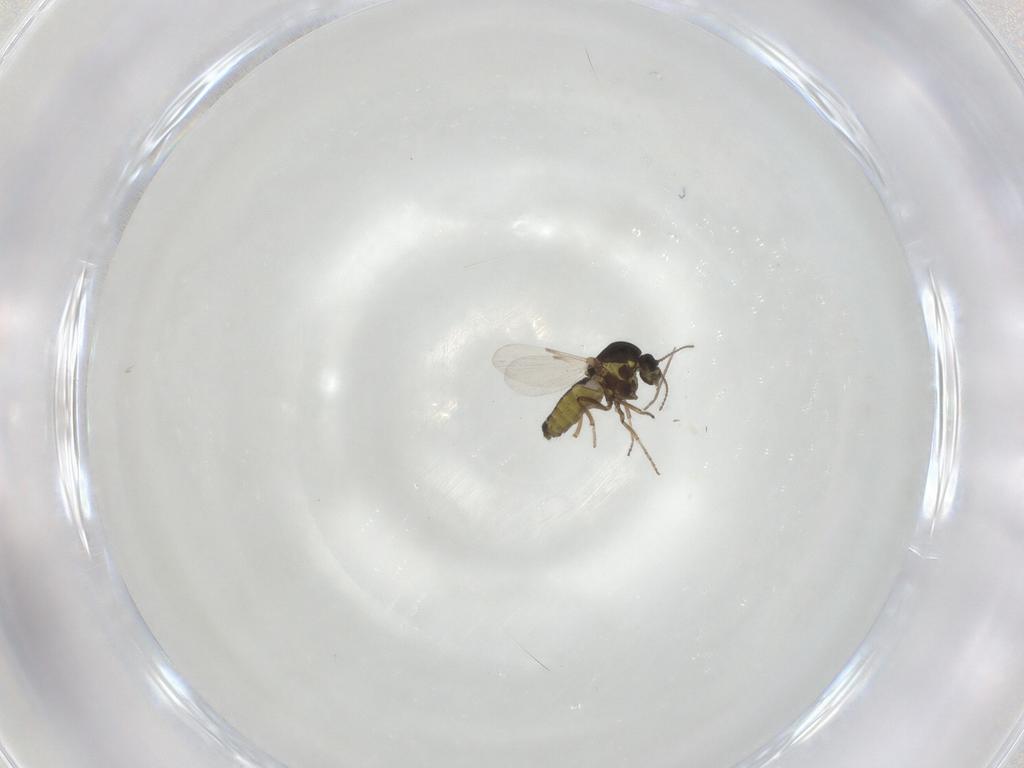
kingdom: Animalia
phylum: Arthropoda
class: Insecta
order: Diptera
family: Ceratopogonidae
